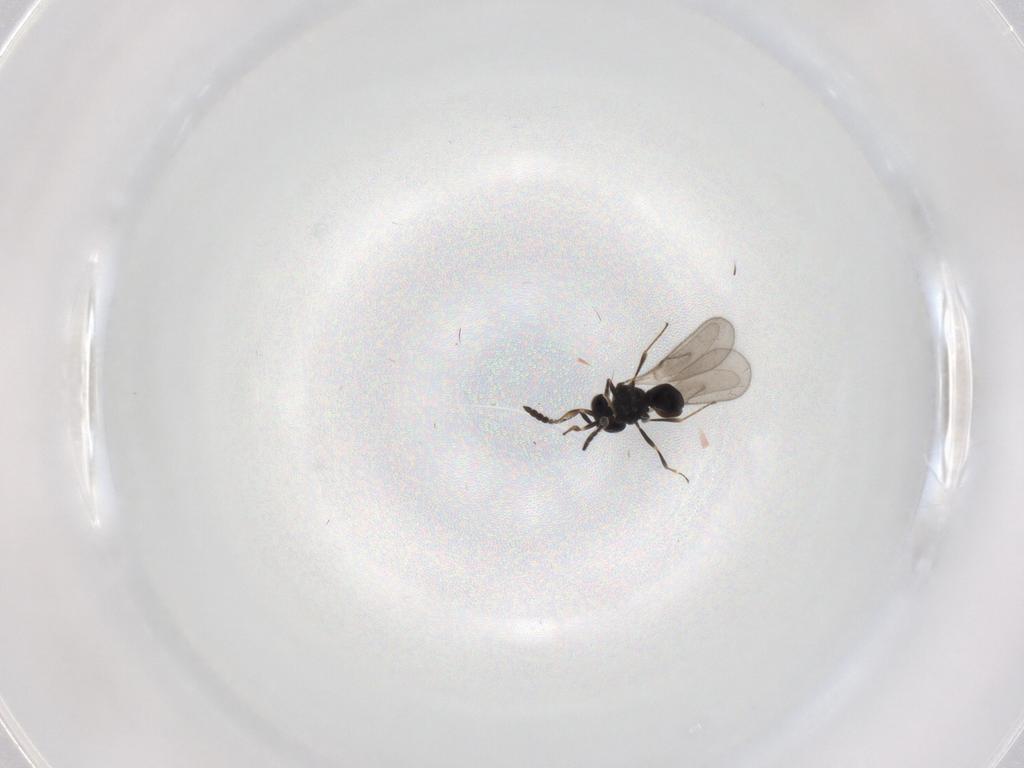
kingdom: Animalia
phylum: Arthropoda
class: Insecta
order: Hymenoptera
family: Scelionidae
